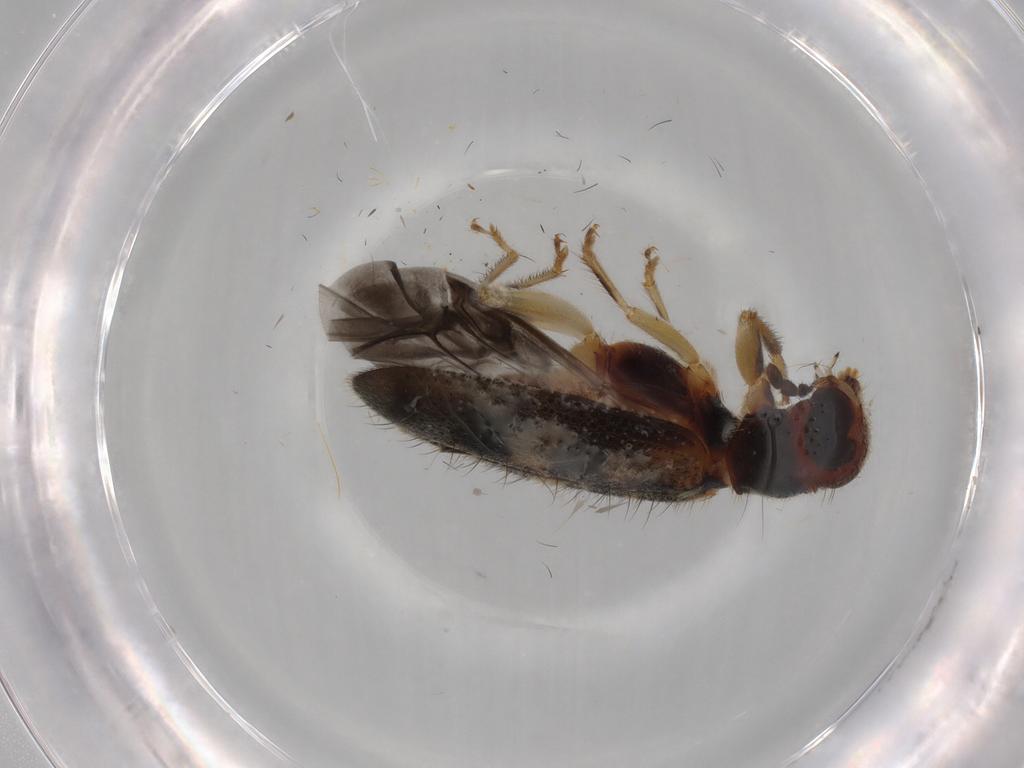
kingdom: Animalia
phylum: Arthropoda
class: Insecta
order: Coleoptera
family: Cleridae
